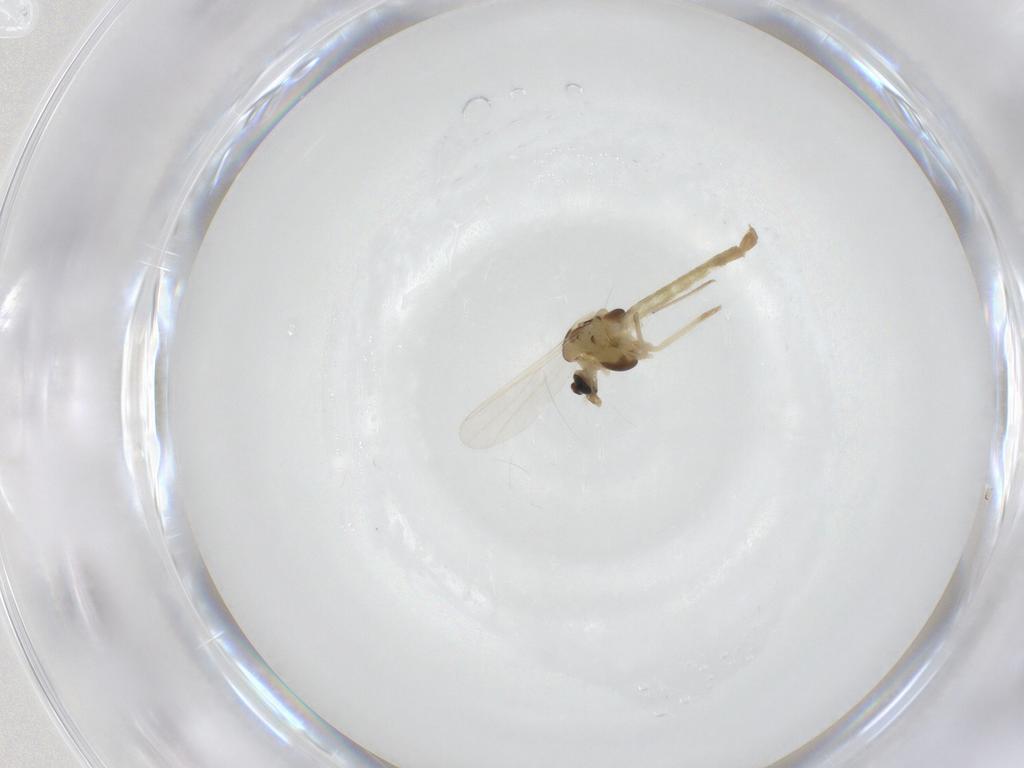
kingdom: Animalia
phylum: Arthropoda
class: Insecta
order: Diptera
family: Chironomidae
